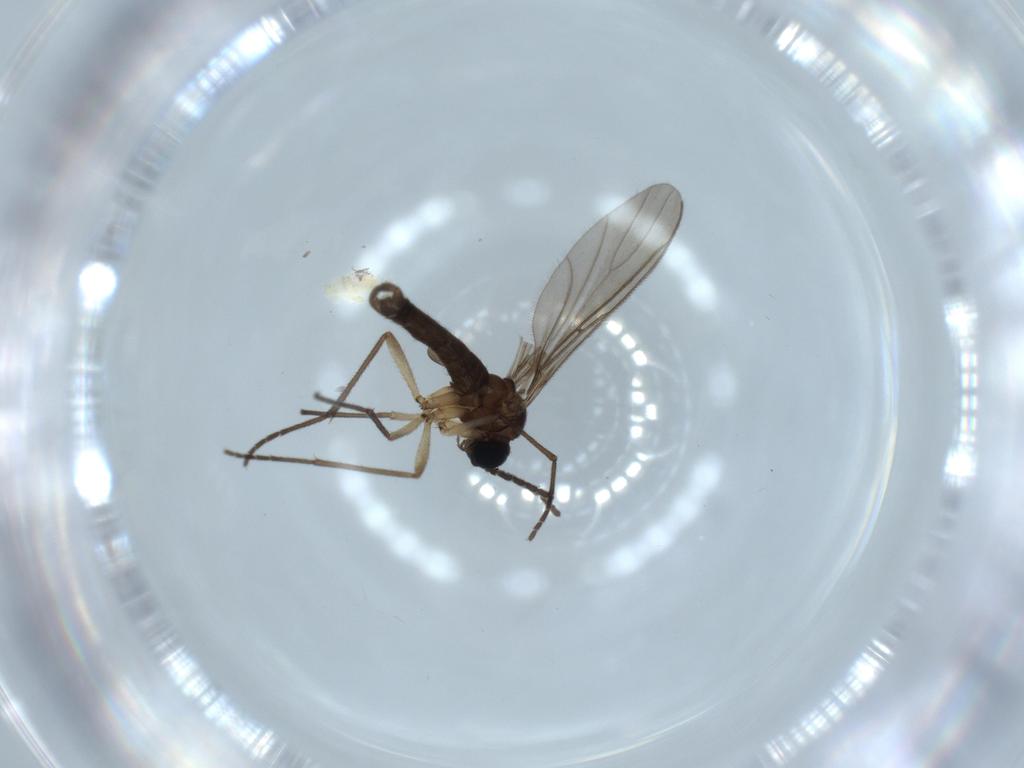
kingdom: Animalia
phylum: Arthropoda
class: Insecta
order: Diptera
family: Sciaridae
